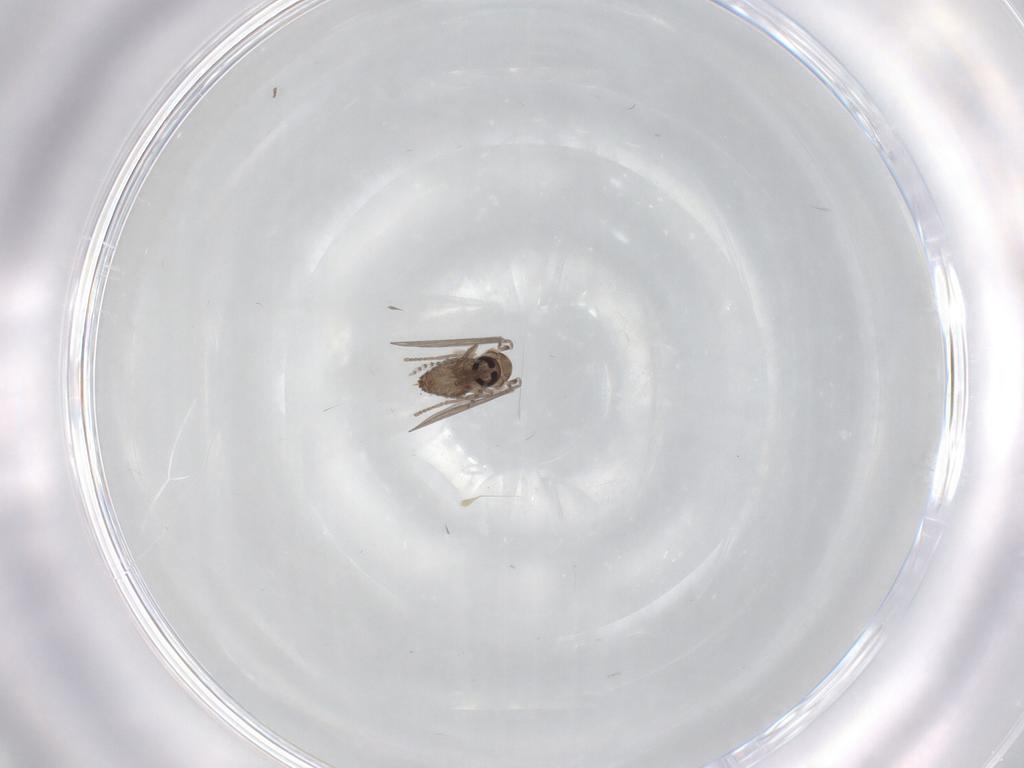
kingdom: Animalia
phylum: Arthropoda
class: Insecta
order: Diptera
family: Psychodidae
